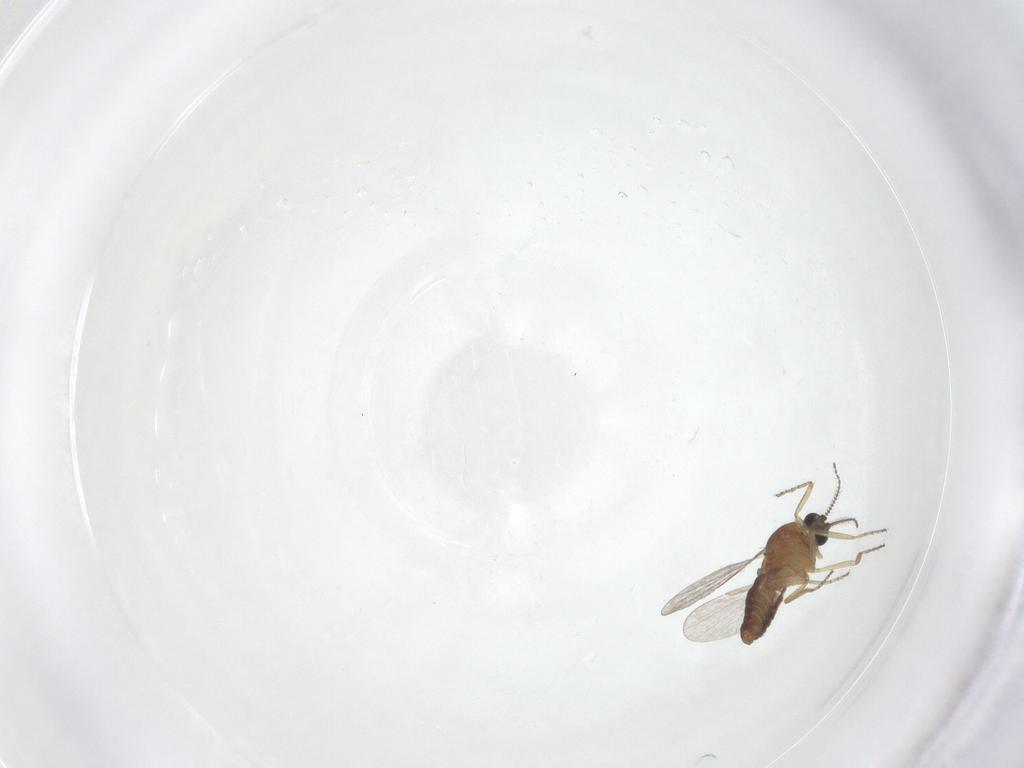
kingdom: Animalia
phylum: Arthropoda
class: Insecta
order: Diptera
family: Ceratopogonidae
